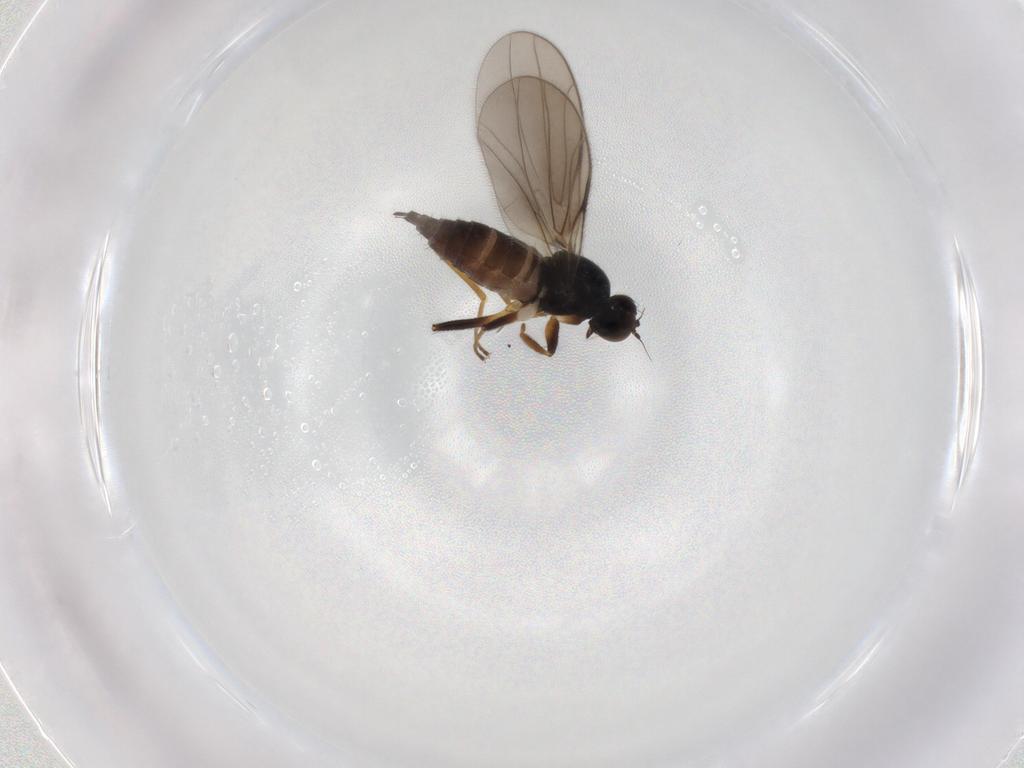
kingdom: Animalia
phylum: Arthropoda
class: Insecta
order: Diptera
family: Hybotidae
